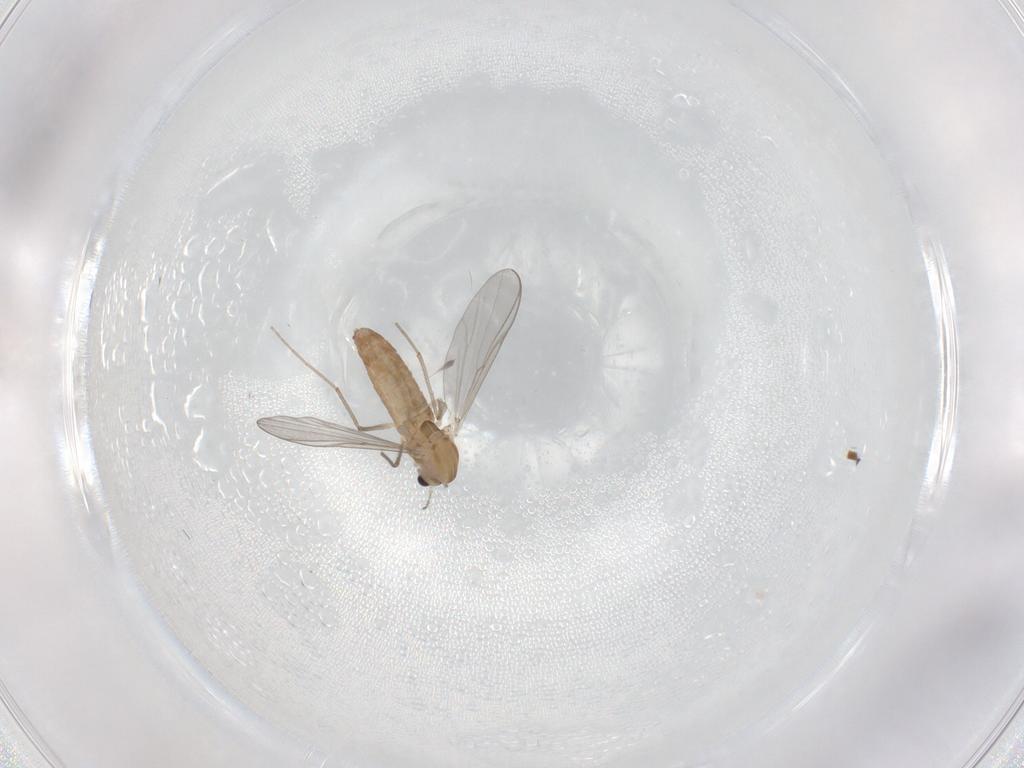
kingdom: Animalia
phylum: Arthropoda
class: Insecta
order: Diptera
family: Chironomidae
